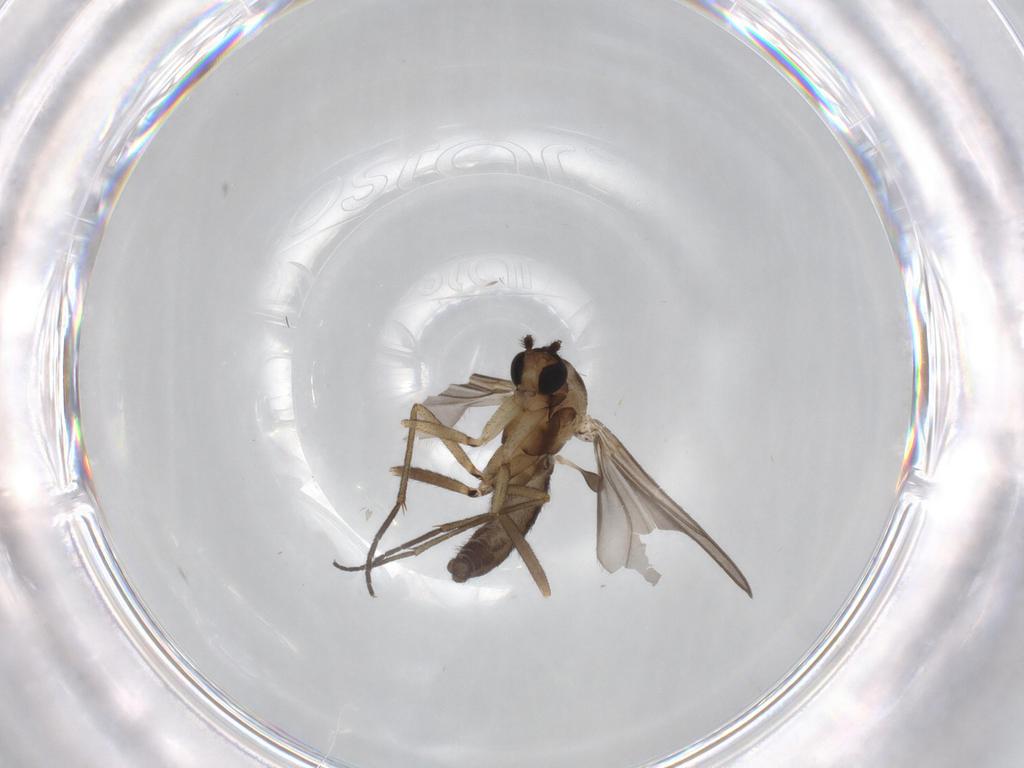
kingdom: Animalia
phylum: Arthropoda
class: Insecta
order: Diptera
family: Sciaridae
